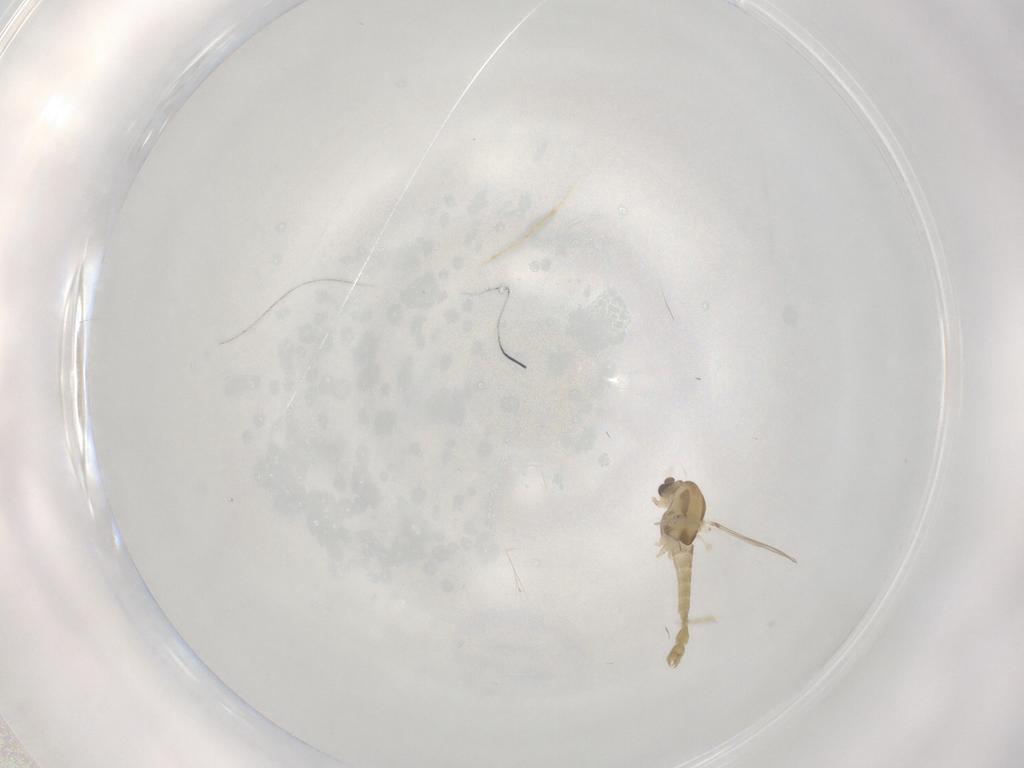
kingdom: Animalia
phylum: Arthropoda
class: Insecta
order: Diptera
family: Chironomidae
